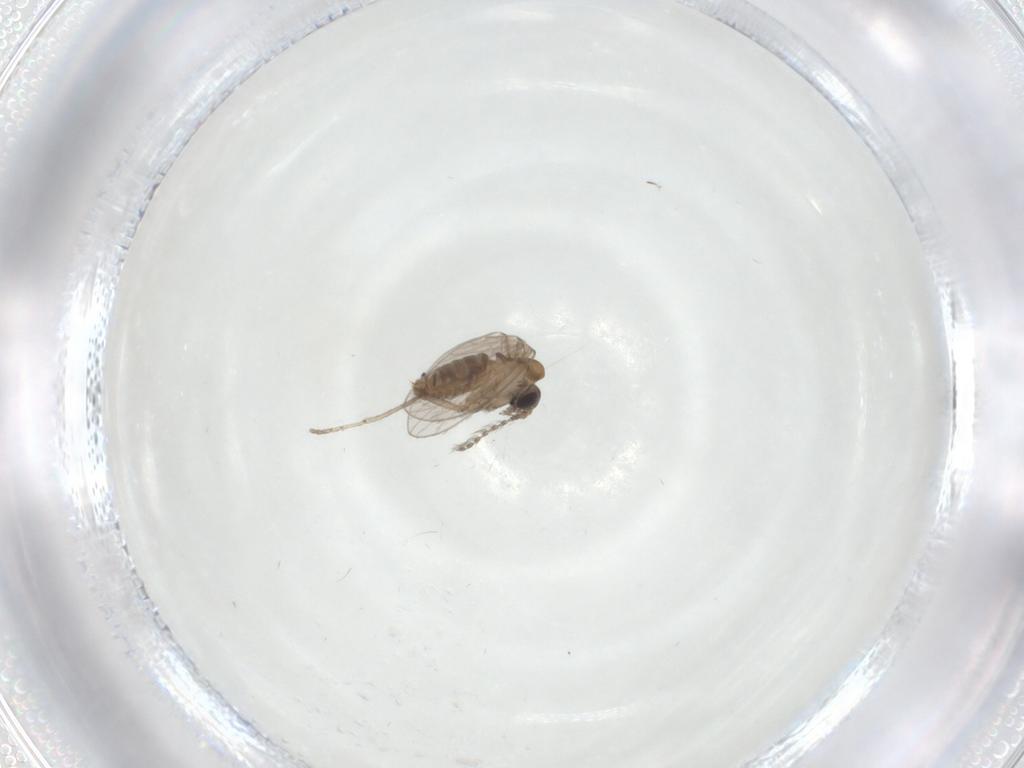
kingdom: Animalia
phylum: Arthropoda
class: Insecta
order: Diptera
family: Psychodidae
